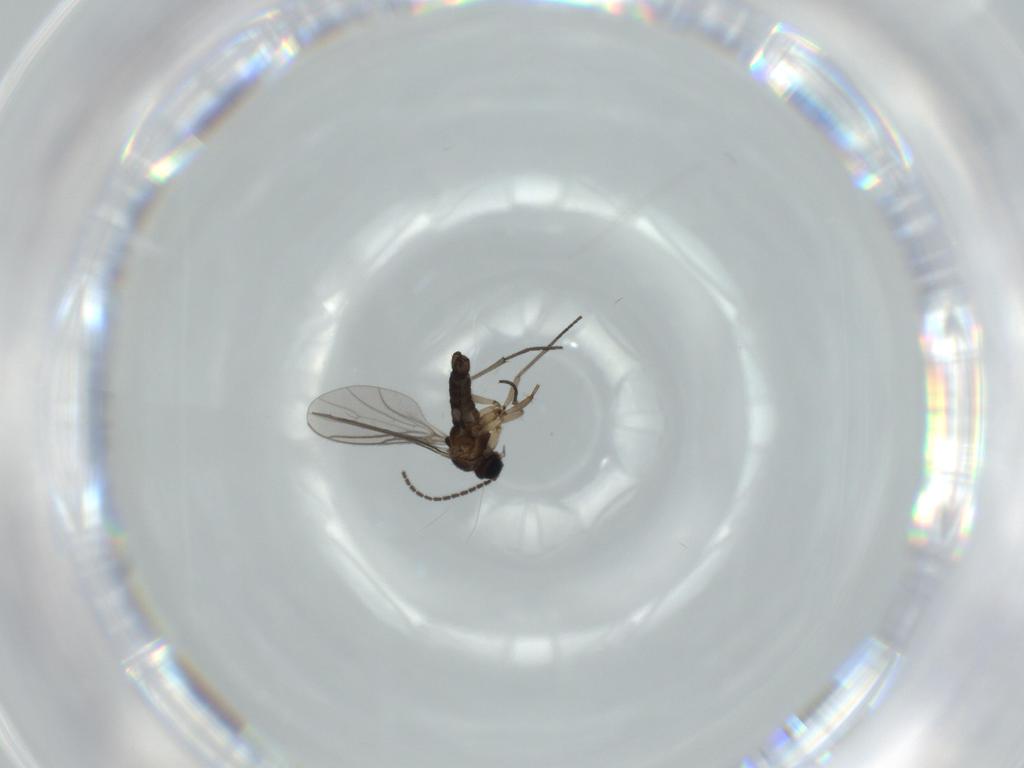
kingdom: Animalia
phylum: Arthropoda
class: Insecta
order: Diptera
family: Sciaridae
